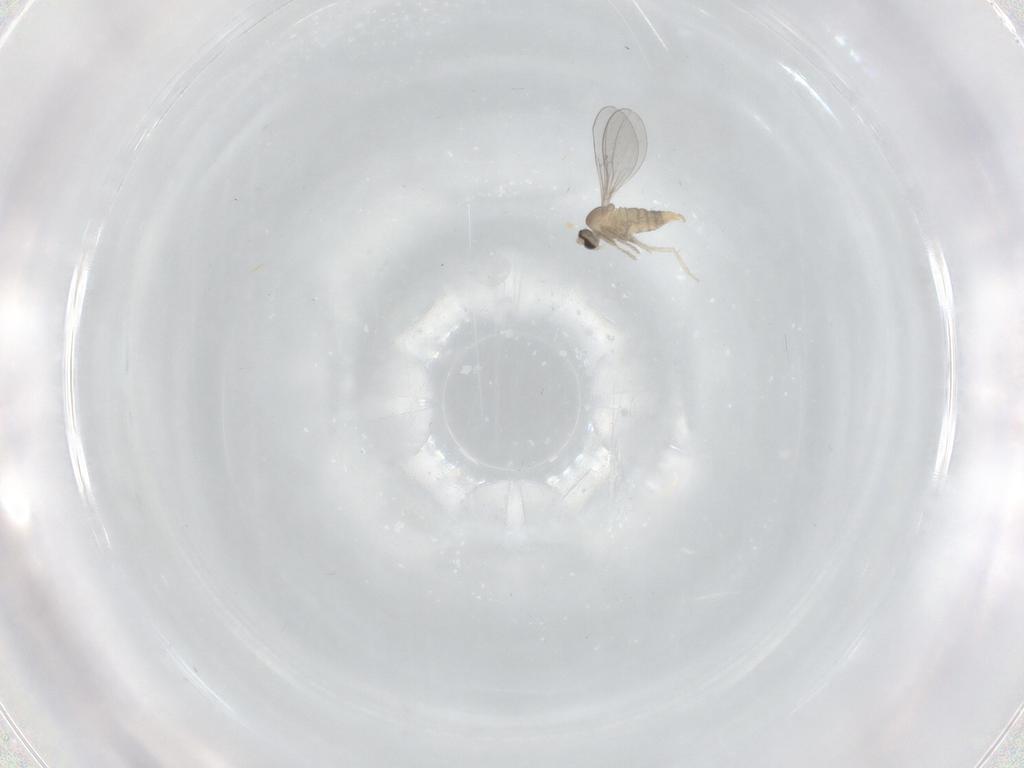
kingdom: Animalia
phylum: Arthropoda
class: Insecta
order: Diptera
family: Cecidomyiidae
